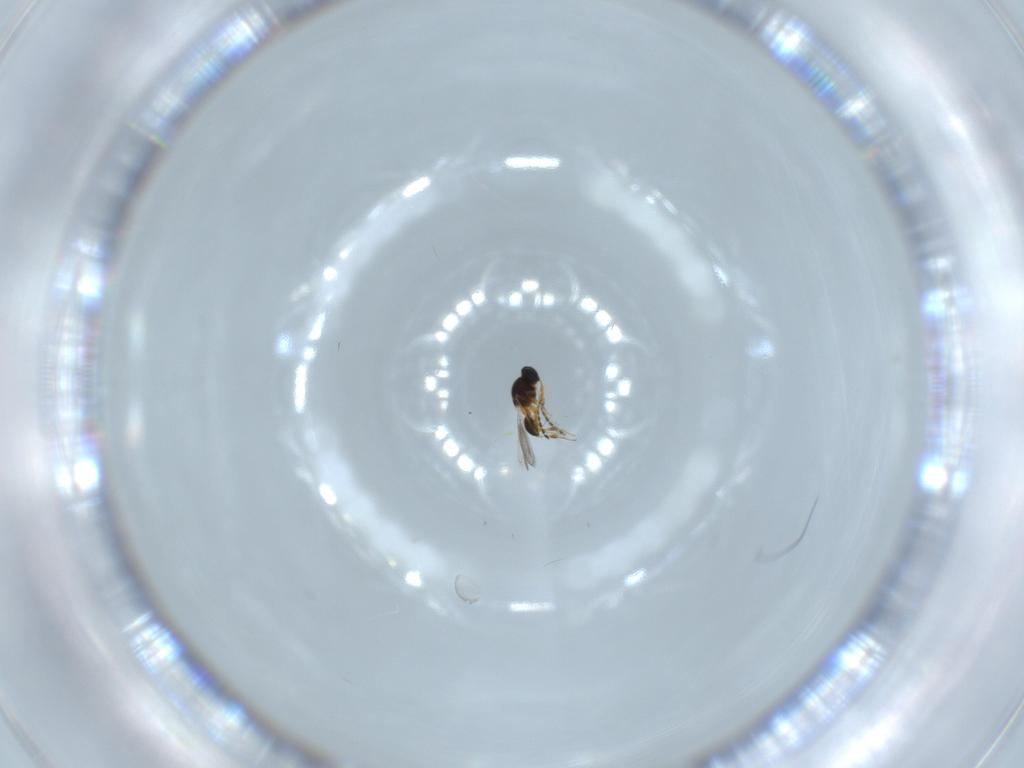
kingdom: Animalia
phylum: Arthropoda
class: Insecta
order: Hymenoptera
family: Platygastridae
